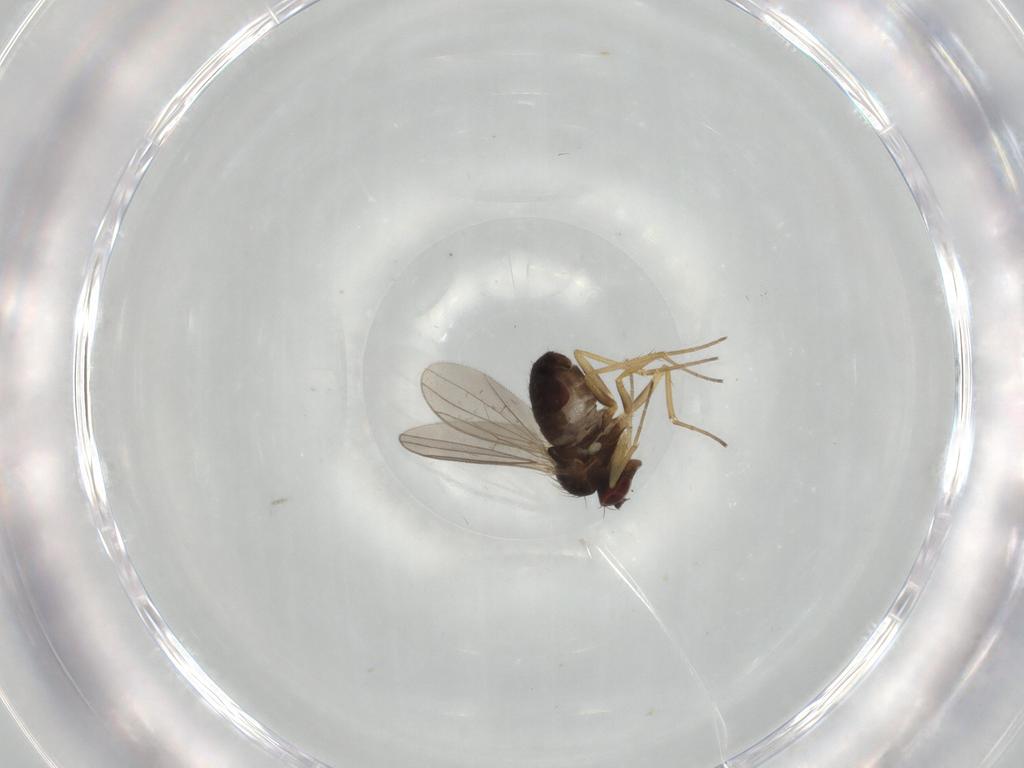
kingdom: Animalia
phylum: Arthropoda
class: Insecta
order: Diptera
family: Dolichopodidae
